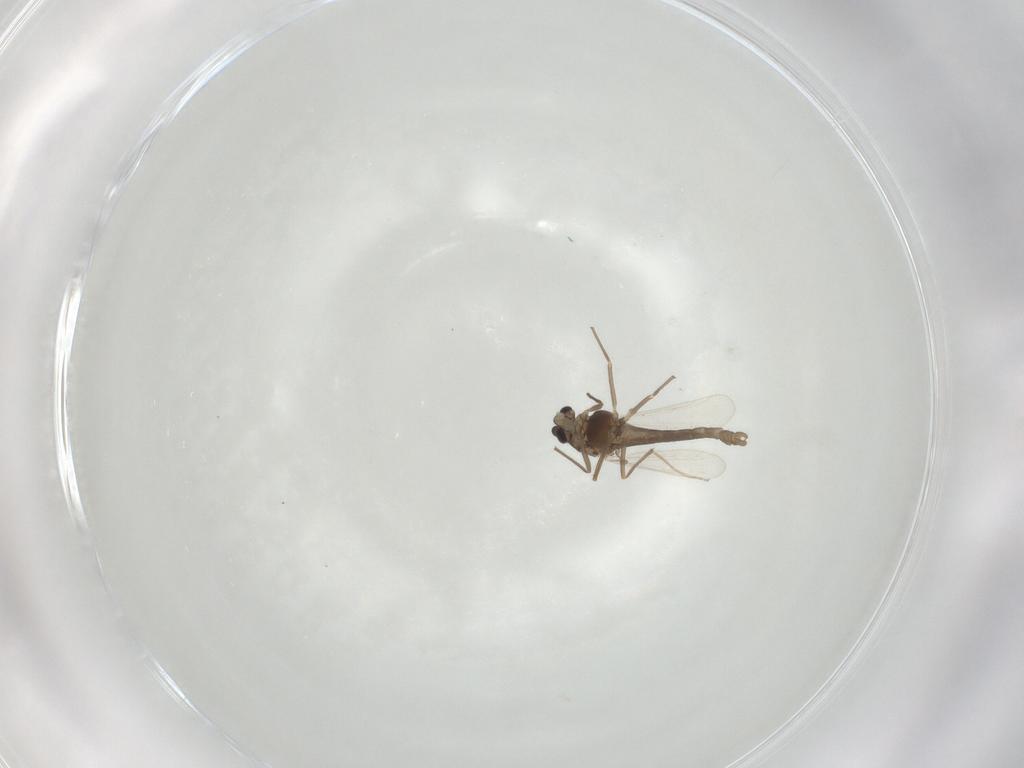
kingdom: Animalia
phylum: Arthropoda
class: Insecta
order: Diptera
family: Chironomidae
